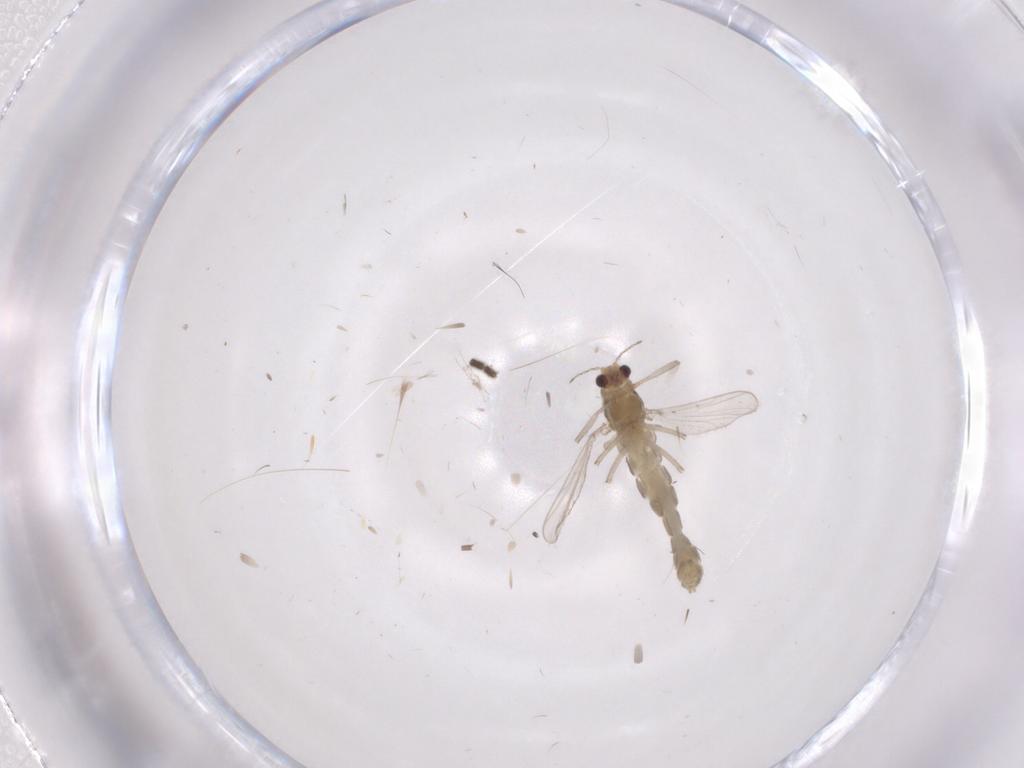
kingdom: Animalia
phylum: Arthropoda
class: Insecta
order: Diptera
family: Chironomidae
